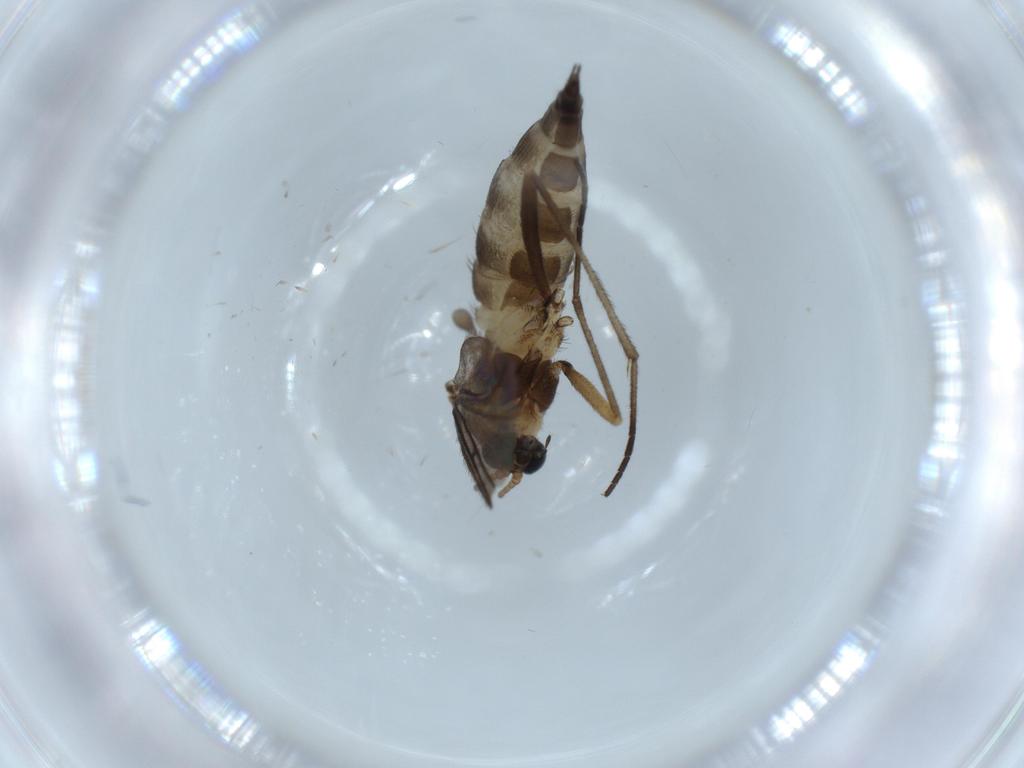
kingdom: Animalia
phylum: Arthropoda
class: Insecta
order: Diptera
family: Chironomidae
